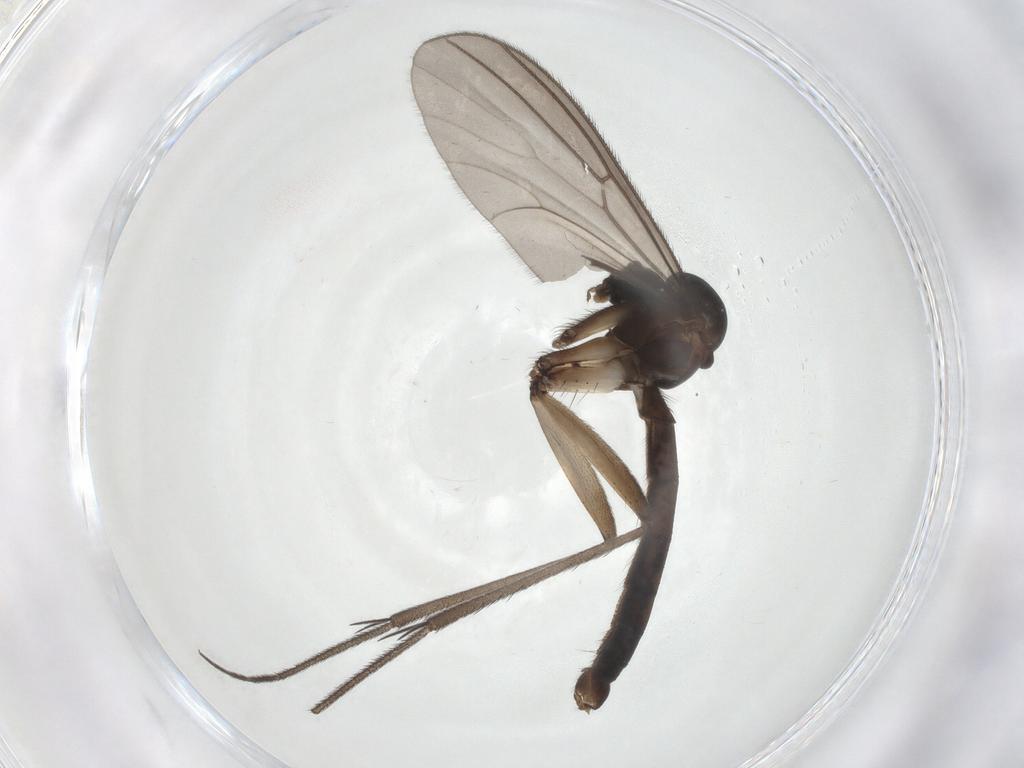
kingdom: Animalia
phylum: Arthropoda
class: Insecta
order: Diptera
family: Mycetophilidae
